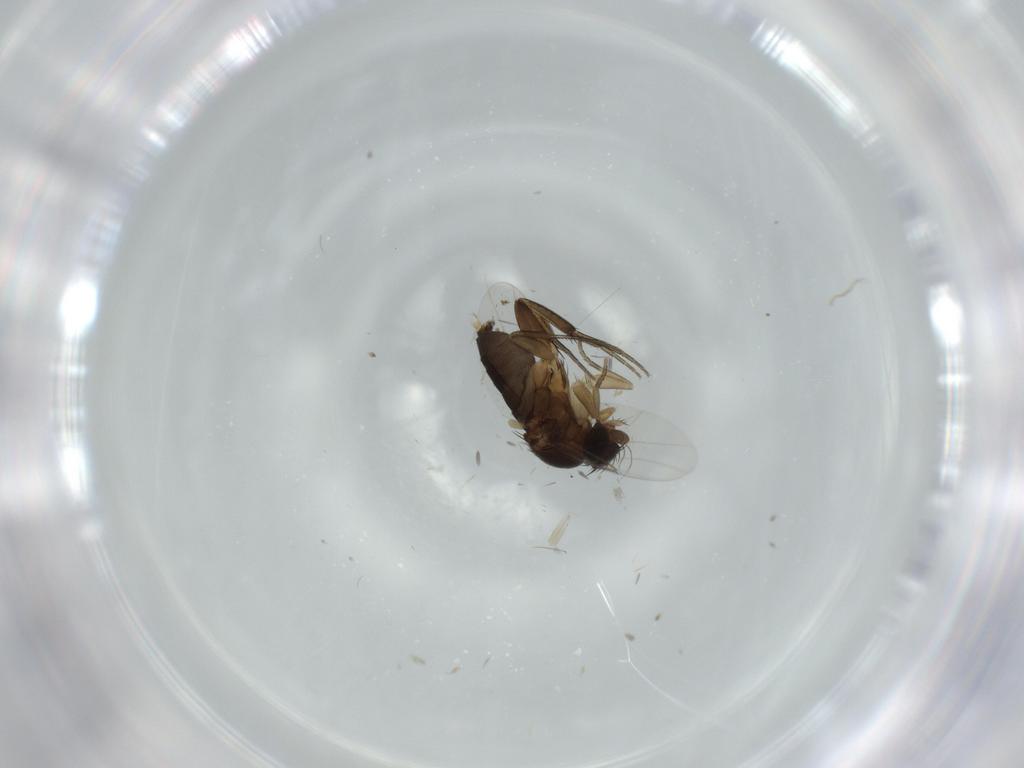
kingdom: Animalia
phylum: Arthropoda
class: Insecta
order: Diptera
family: Phoridae
